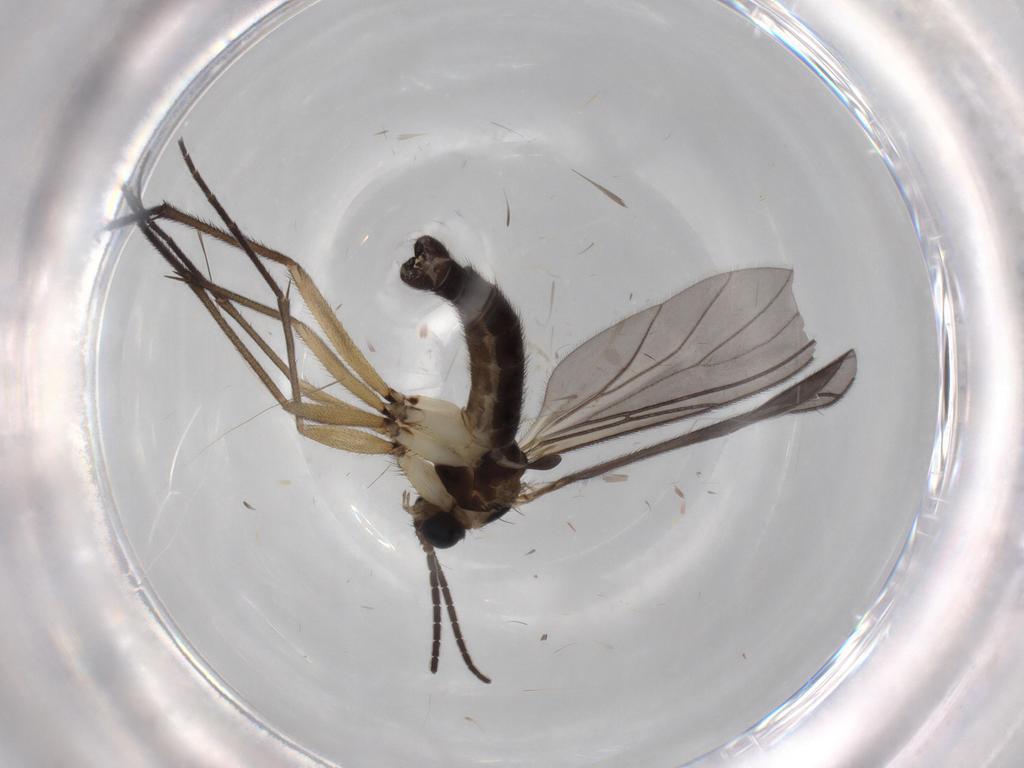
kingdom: Animalia
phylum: Arthropoda
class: Insecta
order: Diptera
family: Sciaridae
